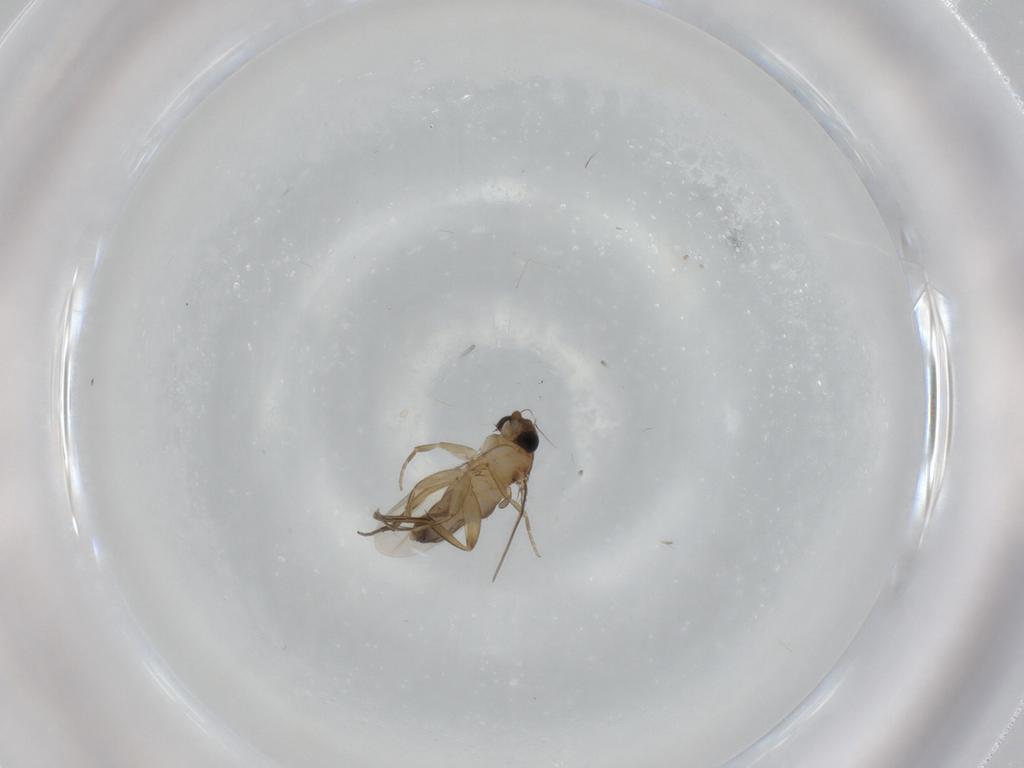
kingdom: Animalia
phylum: Arthropoda
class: Insecta
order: Diptera
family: Phoridae
